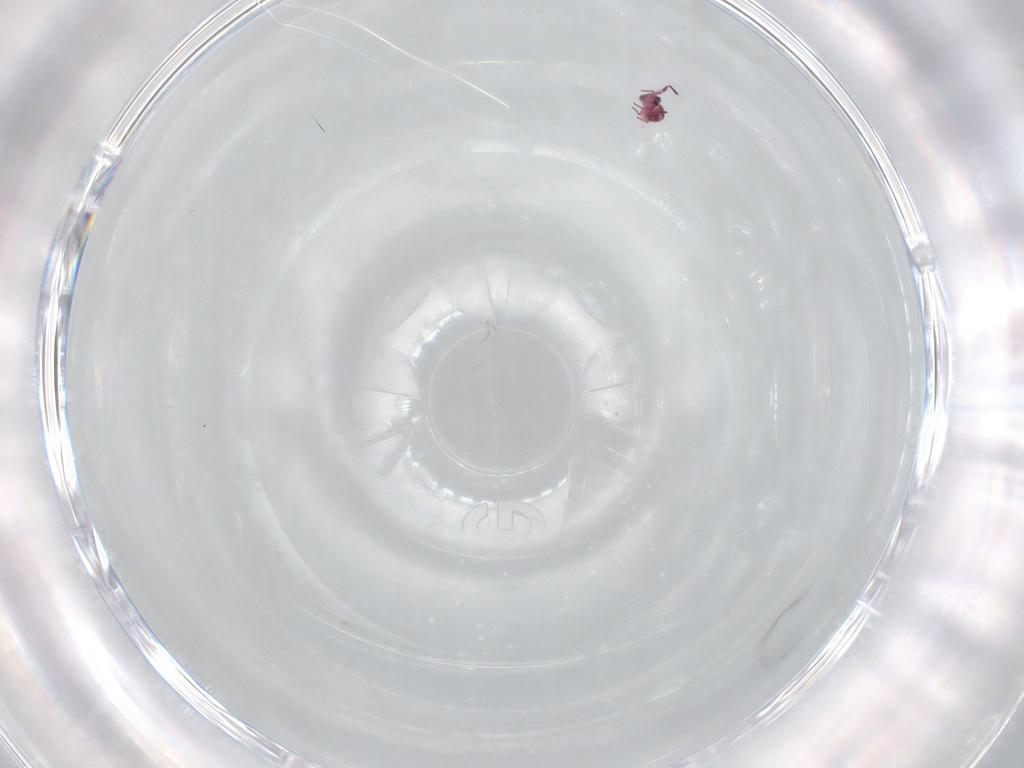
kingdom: Animalia
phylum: Arthropoda
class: Collembola
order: Symphypleona
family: Sminthurididae
